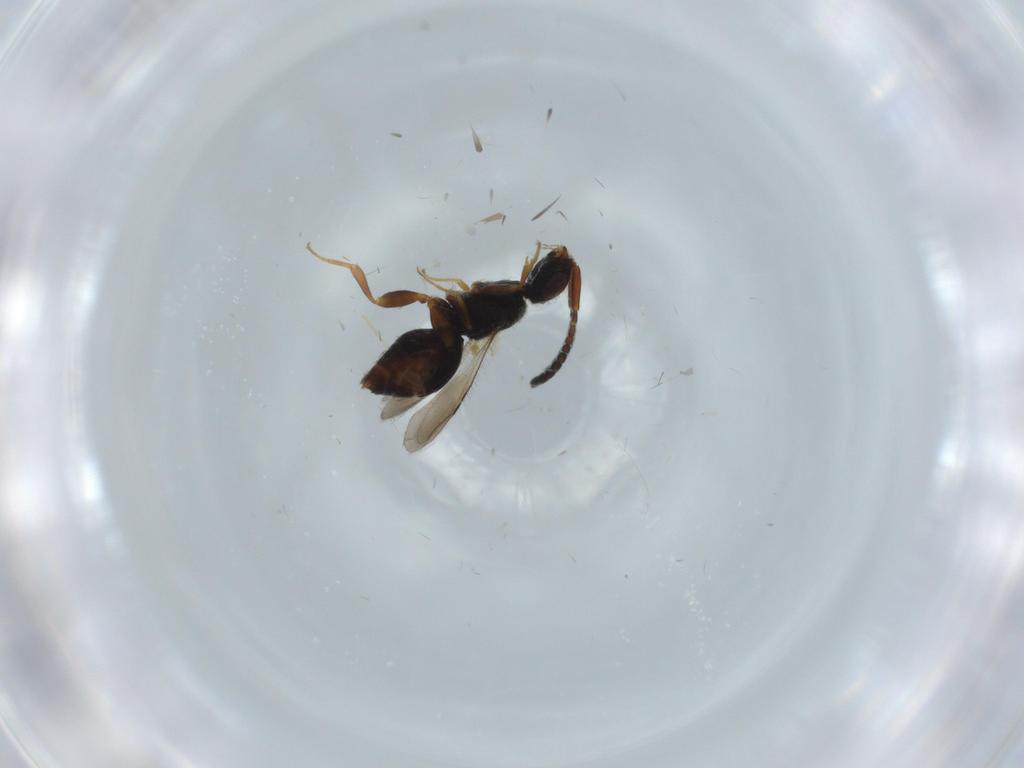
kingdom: Animalia
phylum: Arthropoda
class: Insecta
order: Hymenoptera
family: Ceraphronidae
